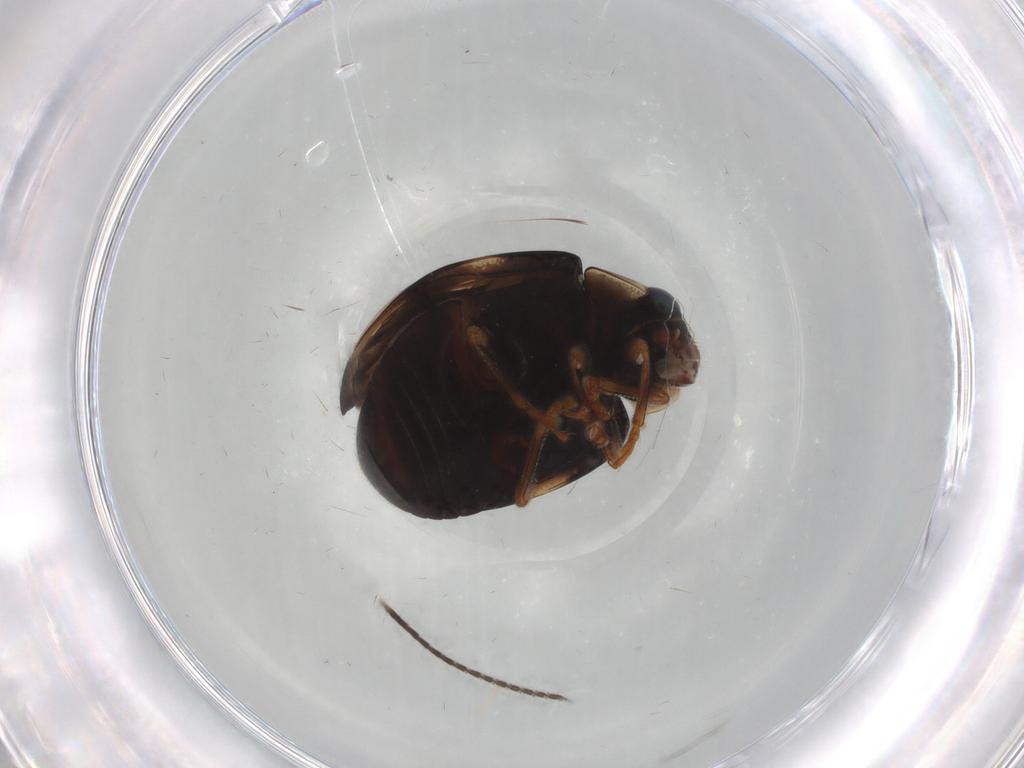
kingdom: Animalia
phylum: Arthropoda
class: Insecta
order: Coleoptera
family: Coccinellidae
